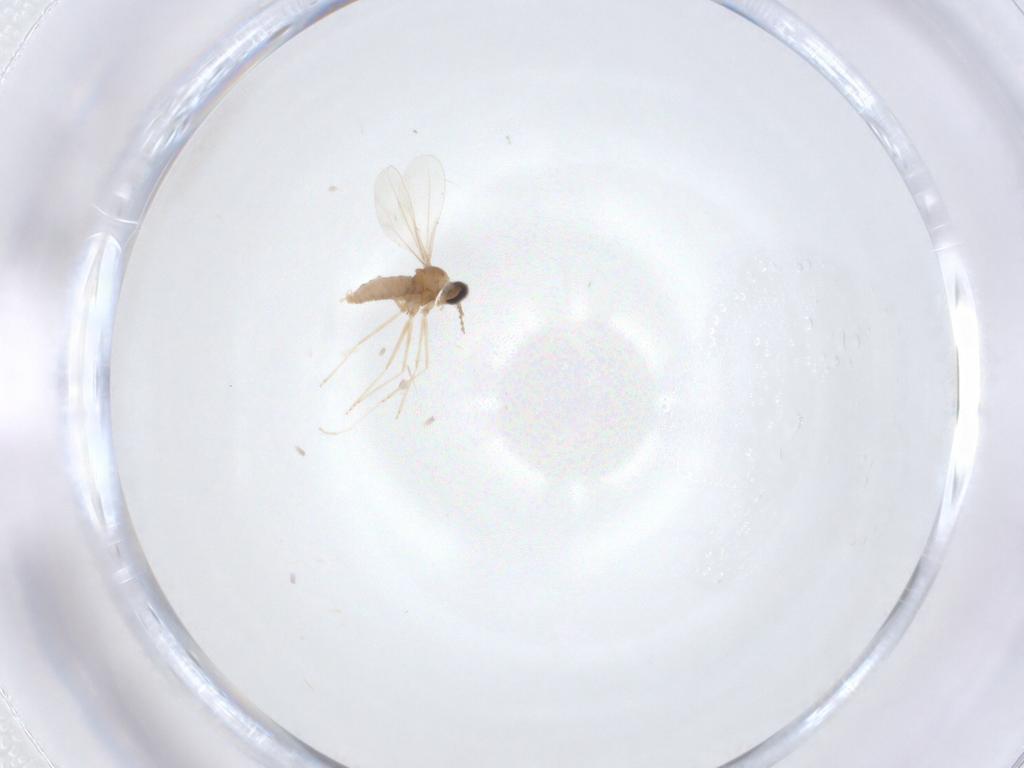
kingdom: Animalia
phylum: Arthropoda
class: Insecta
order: Diptera
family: Cecidomyiidae
